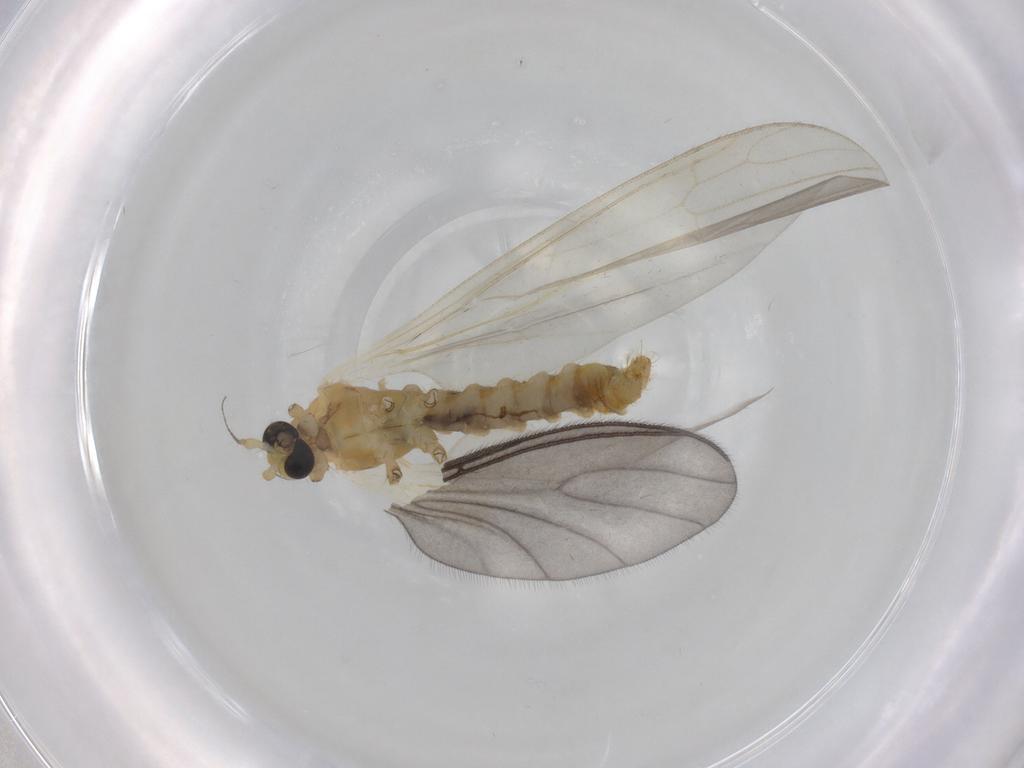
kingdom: Animalia
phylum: Arthropoda
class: Insecta
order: Diptera
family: Limoniidae
